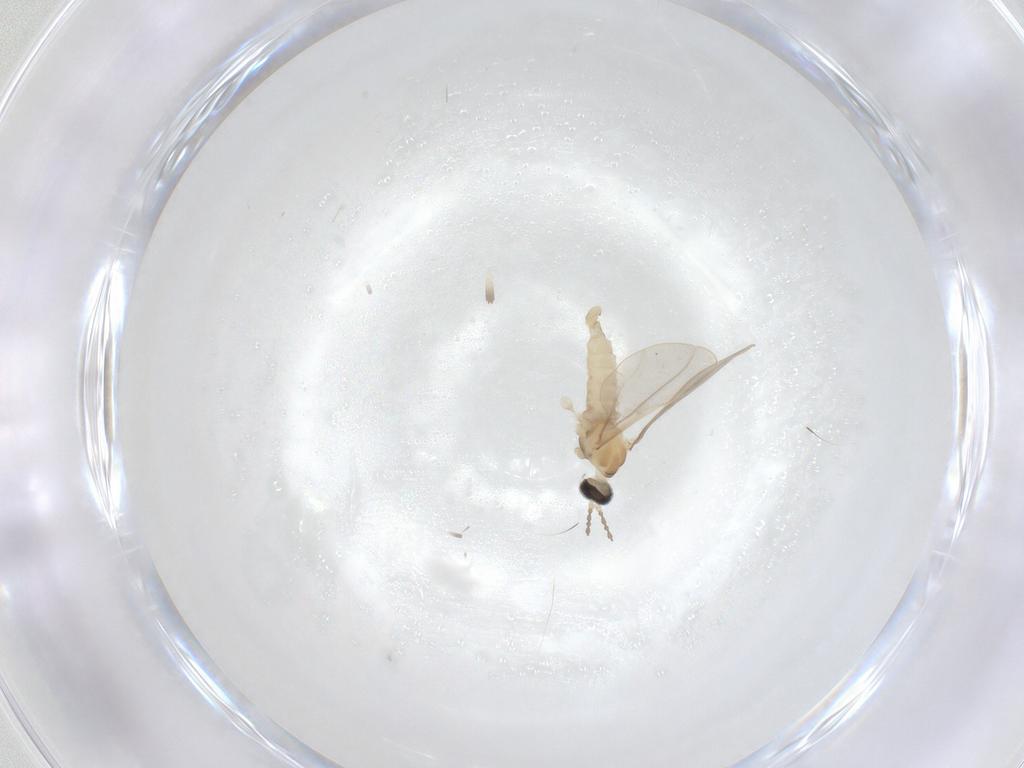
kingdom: Animalia
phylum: Arthropoda
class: Insecta
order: Diptera
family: Cecidomyiidae
